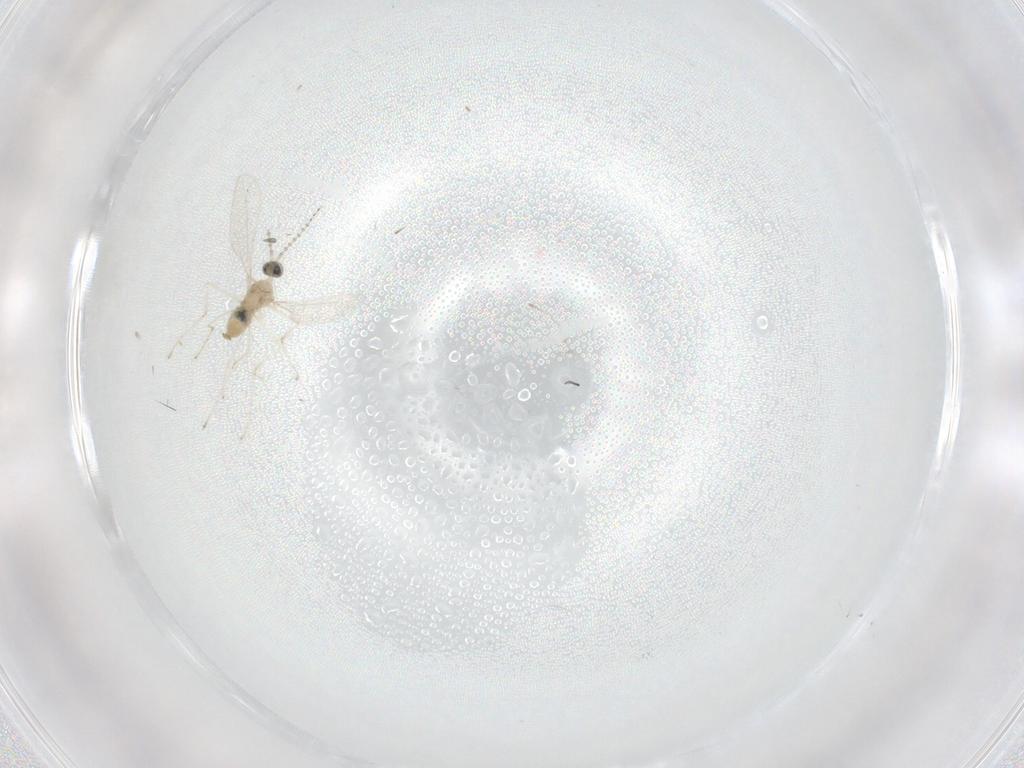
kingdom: Animalia
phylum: Arthropoda
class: Insecta
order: Diptera
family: Cecidomyiidae
